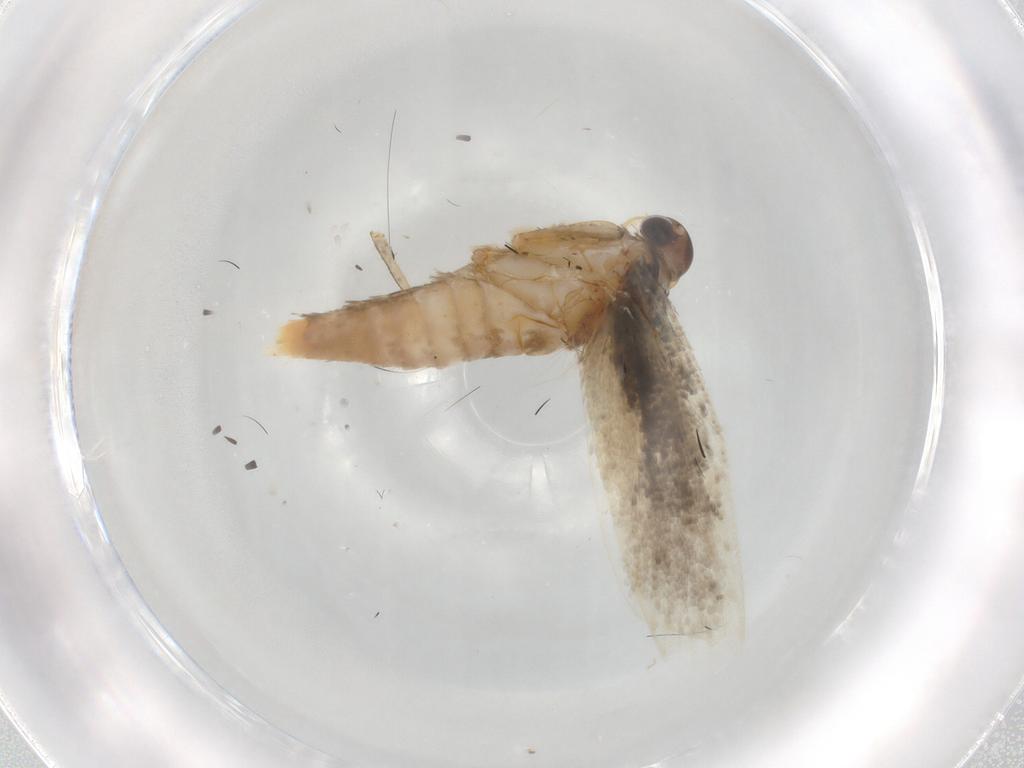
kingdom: Animalia
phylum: Arthropoda
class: Insecta
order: Lepidoptera
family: Gelechiidae
